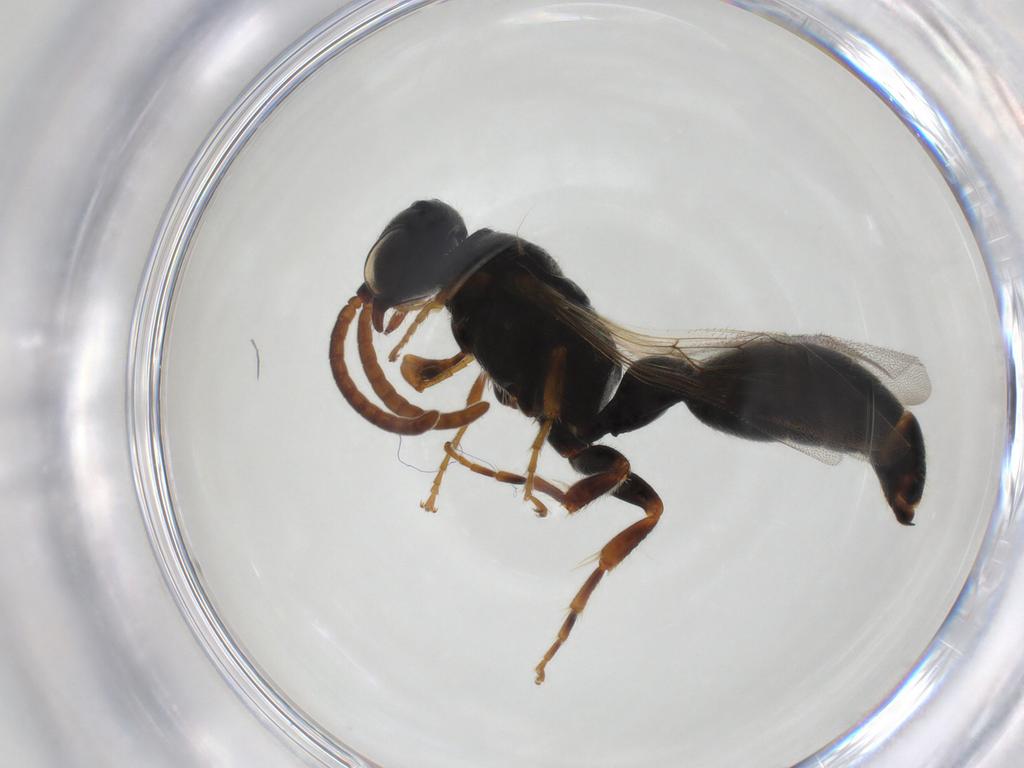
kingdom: Animalia
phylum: Arthropoda
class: Insecta
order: Hymenoptera
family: Tiphiidae
